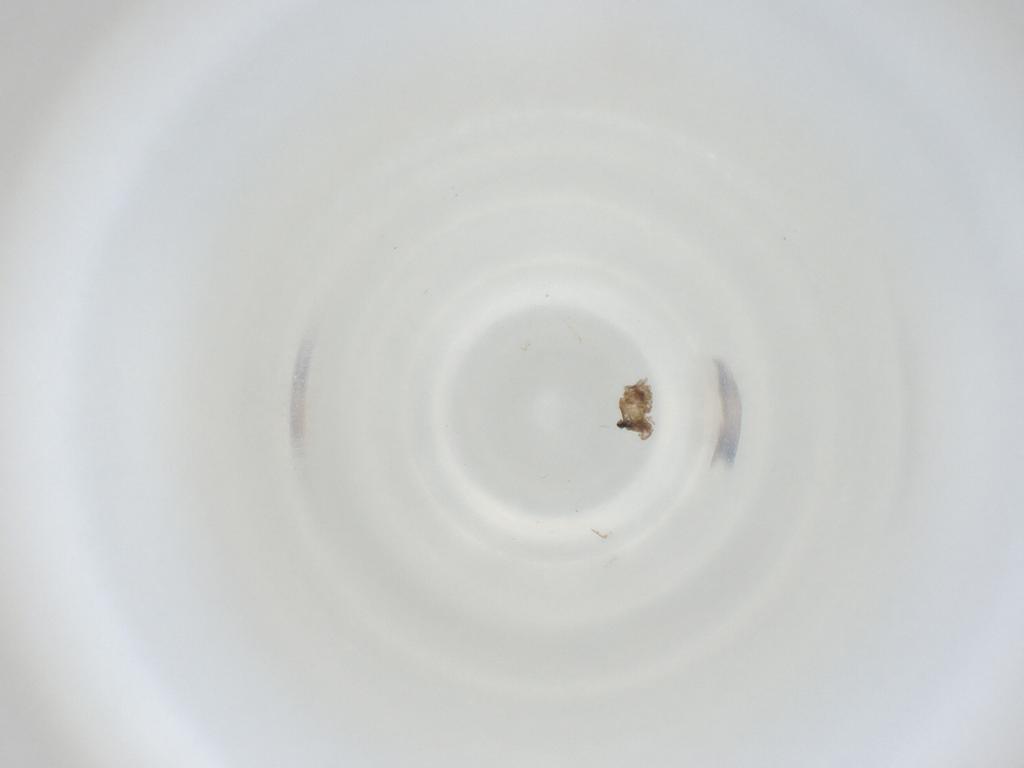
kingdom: Animalia
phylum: Arthropoda
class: Insecta
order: Diptera
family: Cecidomyiidae
